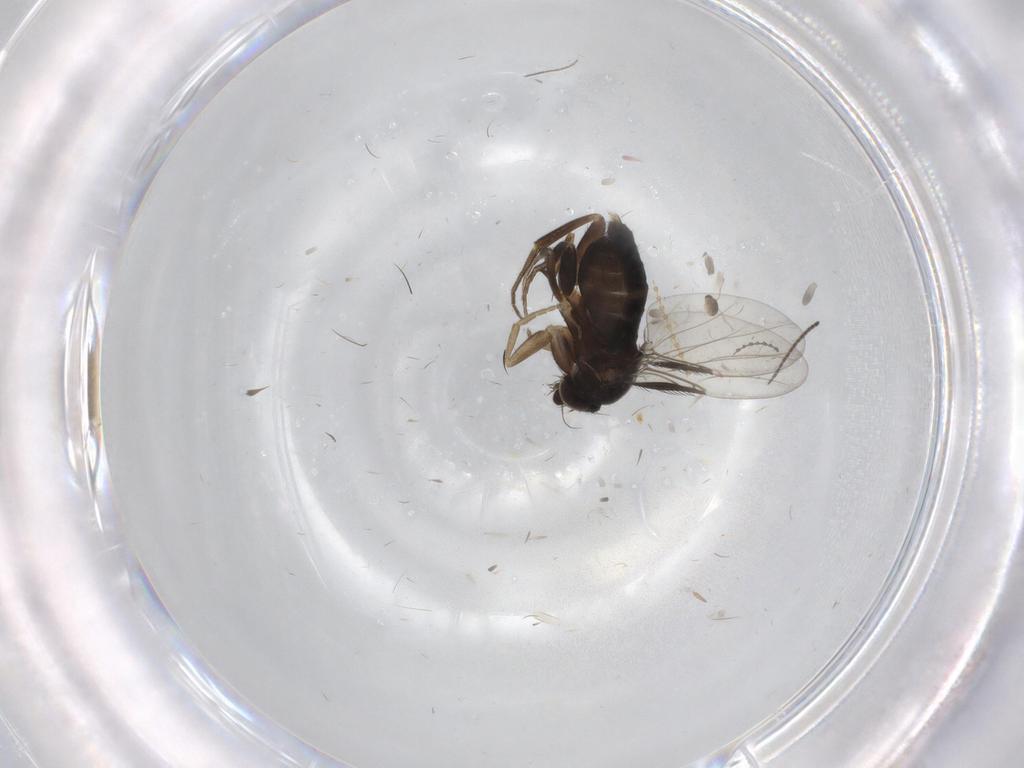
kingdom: Animalia
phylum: Arthropoda
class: Insecta
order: Diptera
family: Phoridae
